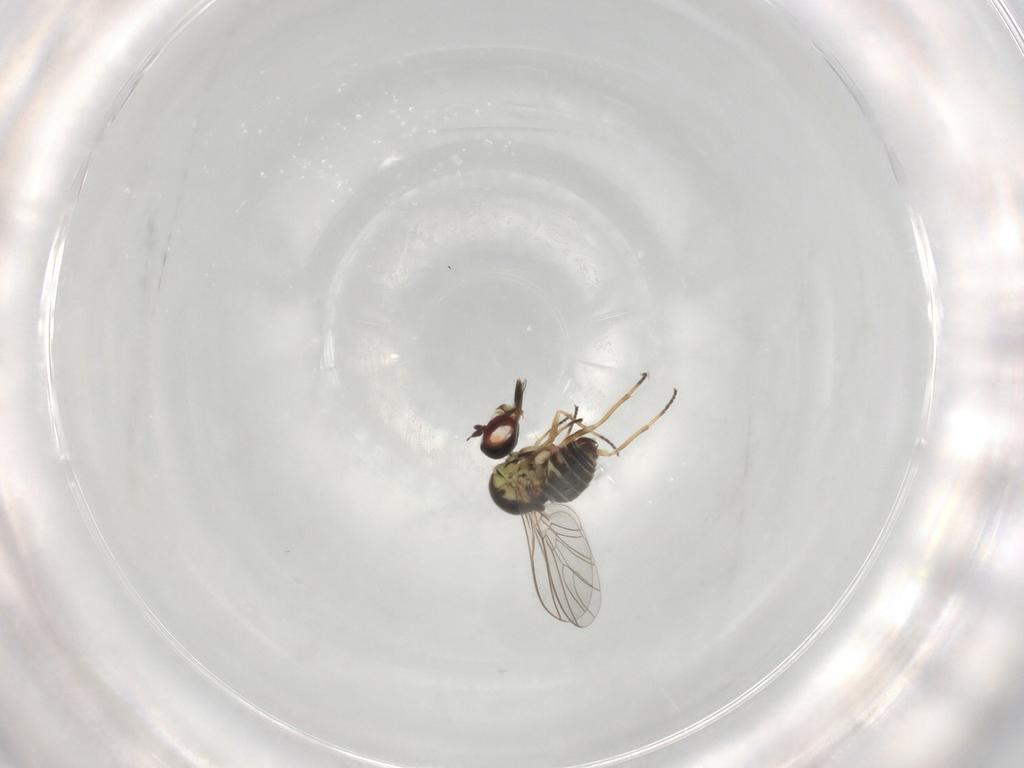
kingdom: Animalia
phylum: Arthropoda
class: Insecta
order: Diptera
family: Bombyliidae
